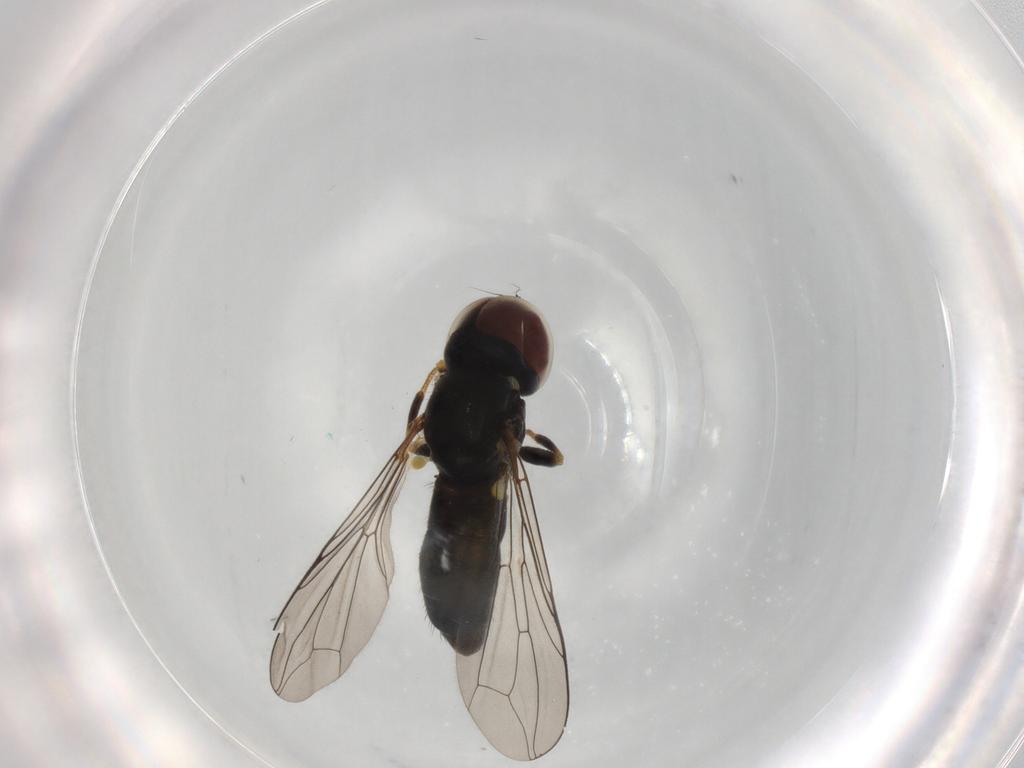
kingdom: Animalia
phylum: Arthropoda
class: Insecta
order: Diptera
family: Pipunculidae
